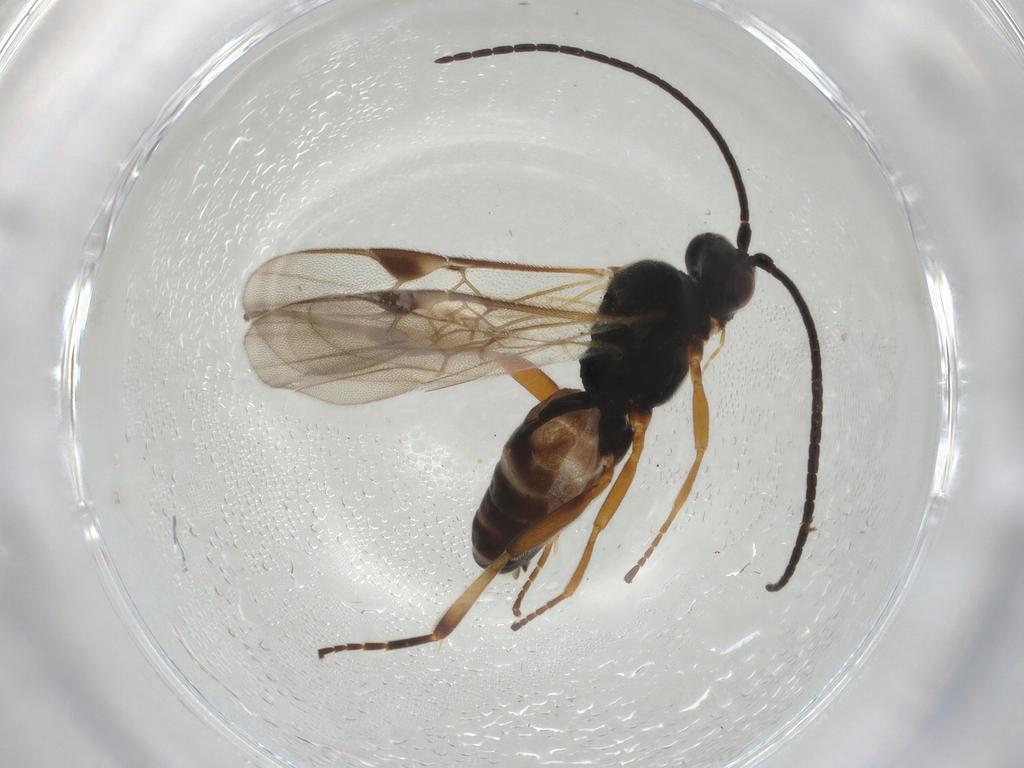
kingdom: Animalia
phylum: Arthropoda
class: Insecta
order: Hymenoptera
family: Braconidae
